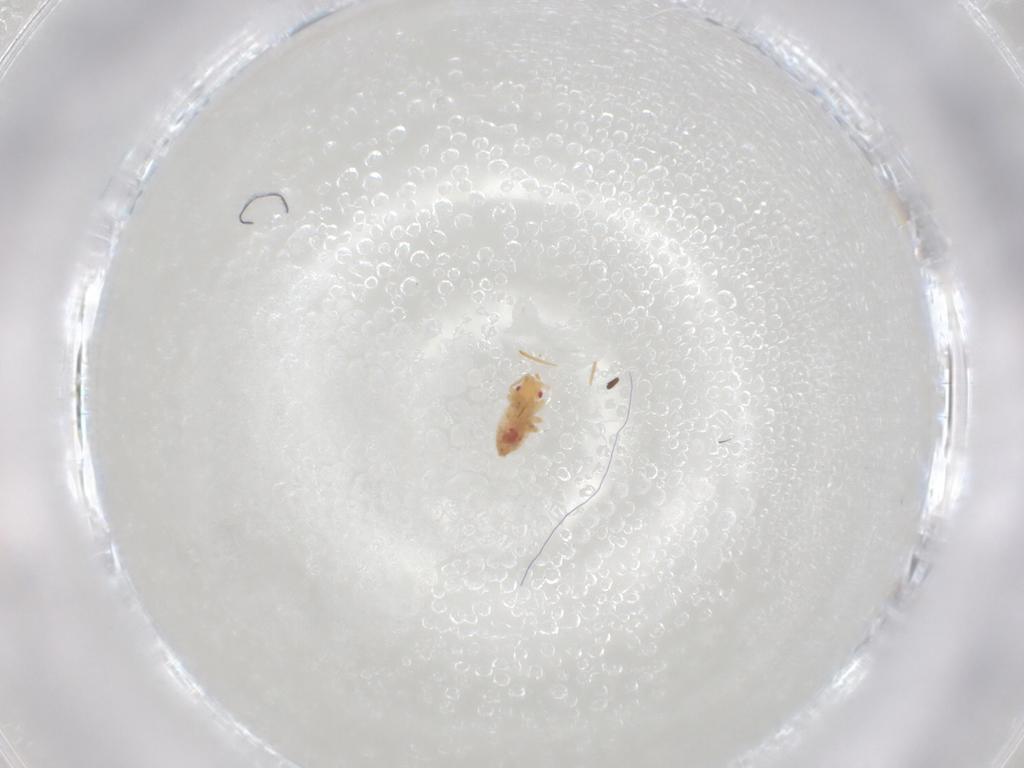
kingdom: Animalia
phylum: Arthropoda
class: Insecta
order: Hemiptera
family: Miridae
